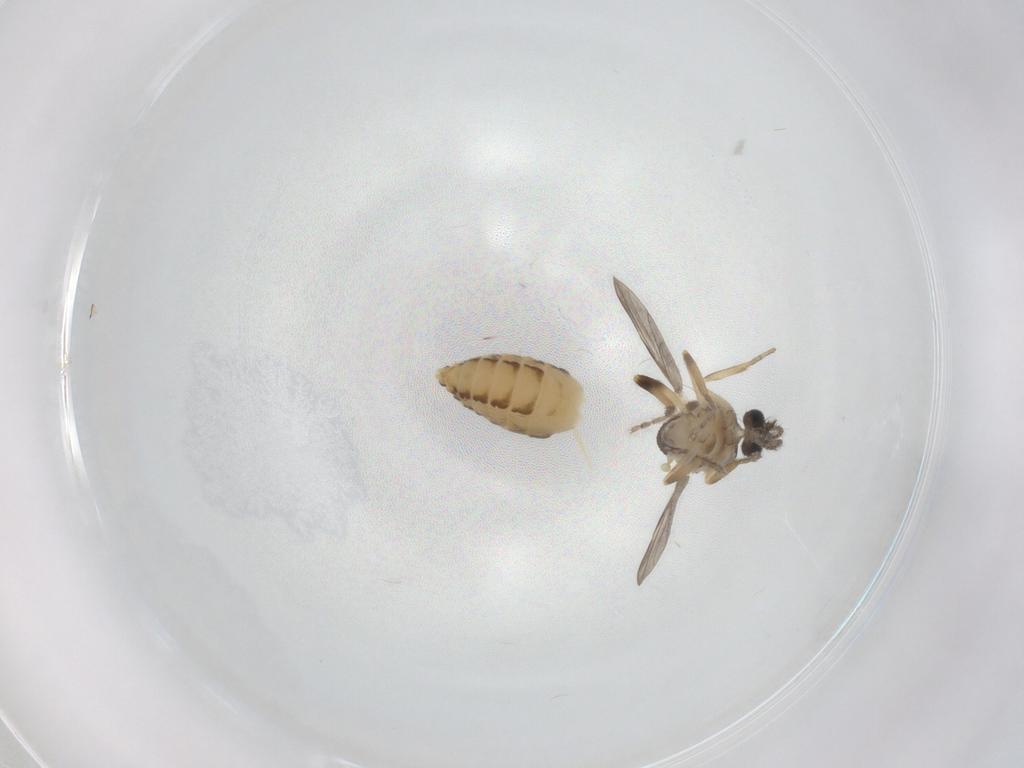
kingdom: Animalia
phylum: Arthropoda
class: Insecta
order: Diptera
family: Ceratopogonidae
